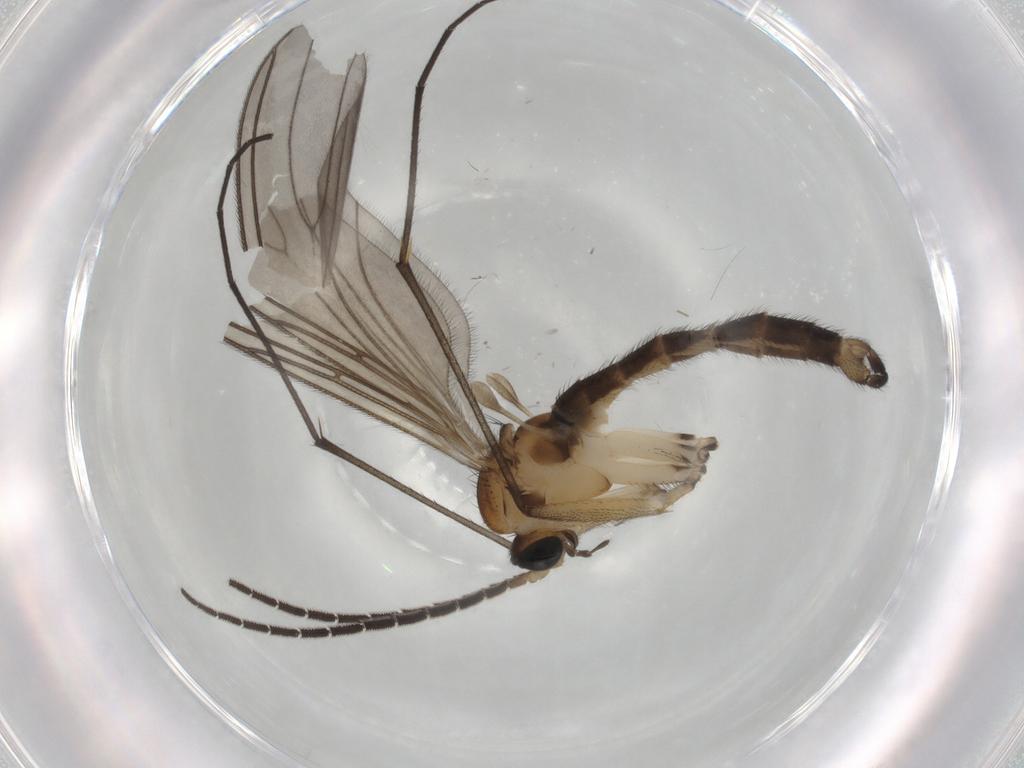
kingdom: Animalia
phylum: Arthropoda
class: Insecta
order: Diptera
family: Sciaridae
